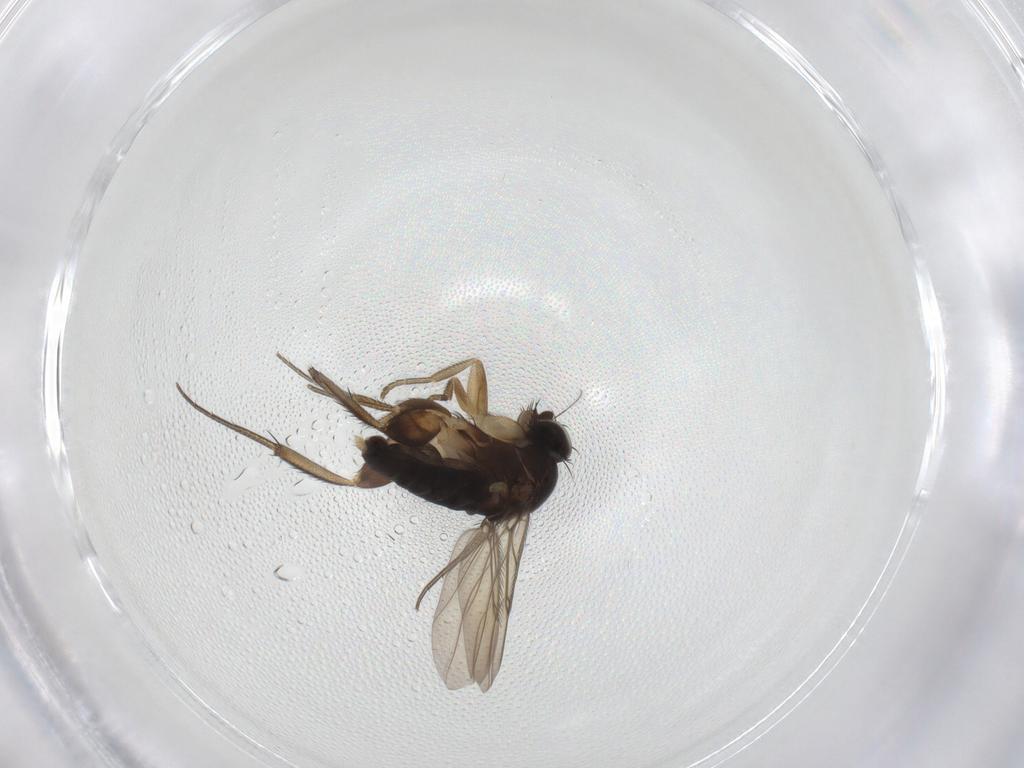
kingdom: Animalia
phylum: Arthropoda
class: Insecta
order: Diptera
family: Phoridae
